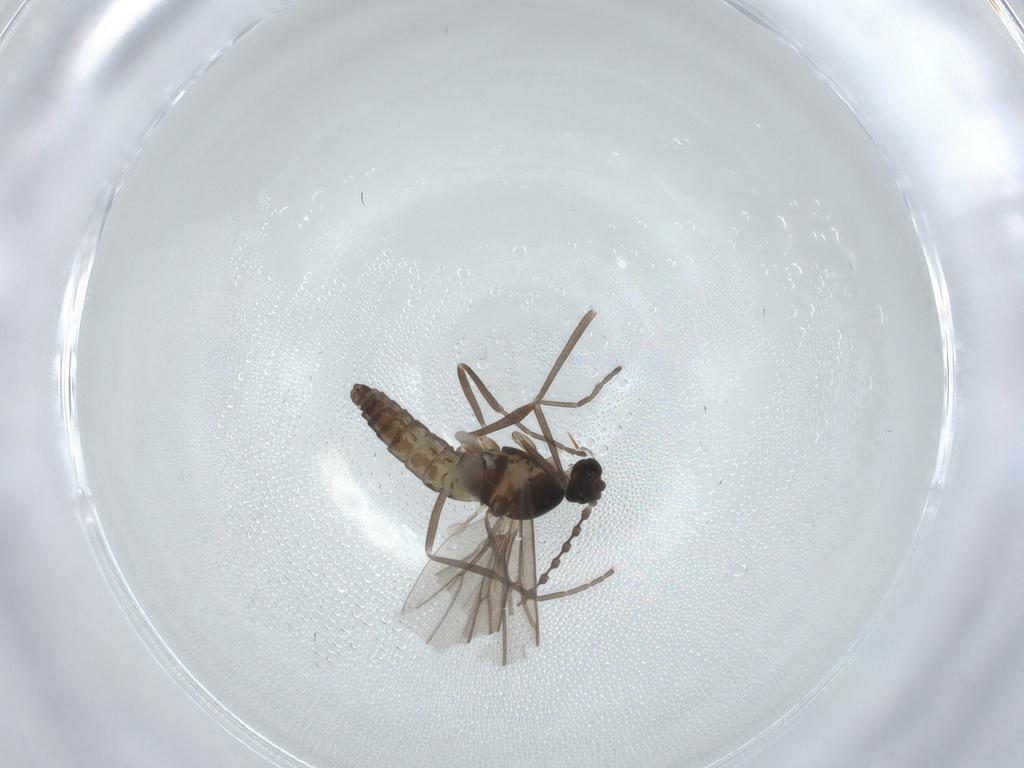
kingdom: Animalia
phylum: Arthropoda
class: Insecta
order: Diptera
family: Cecidomyiidae
